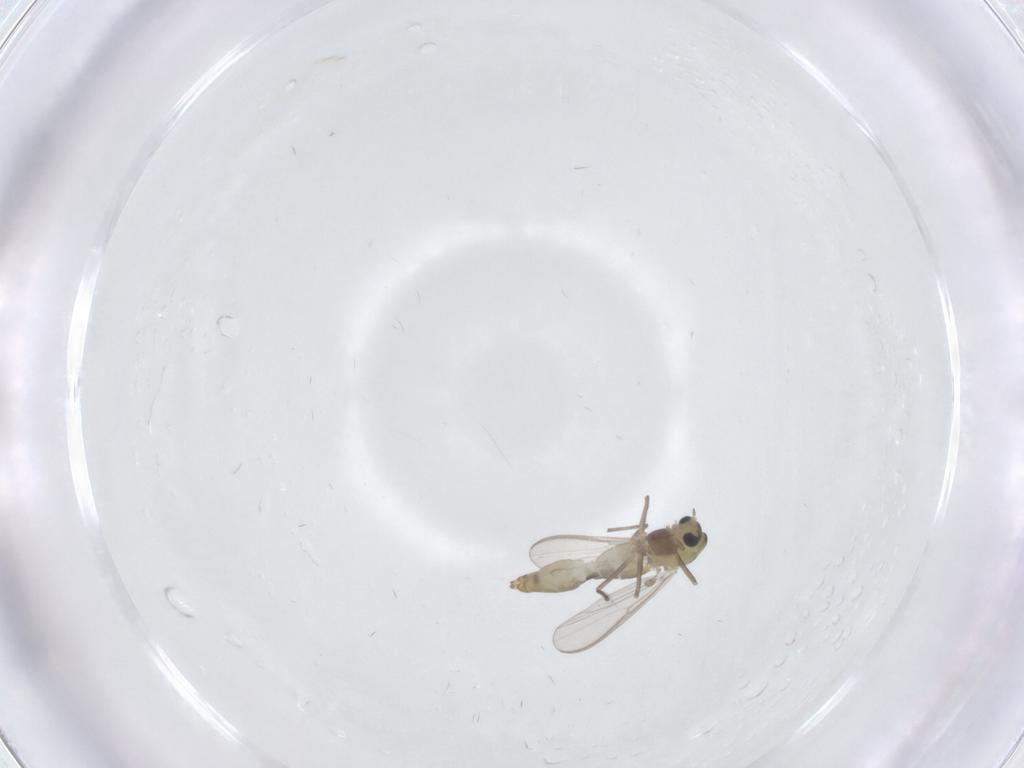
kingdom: Animalia
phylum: Arthropoda
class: Insecta
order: Diptera
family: Chironomidae
